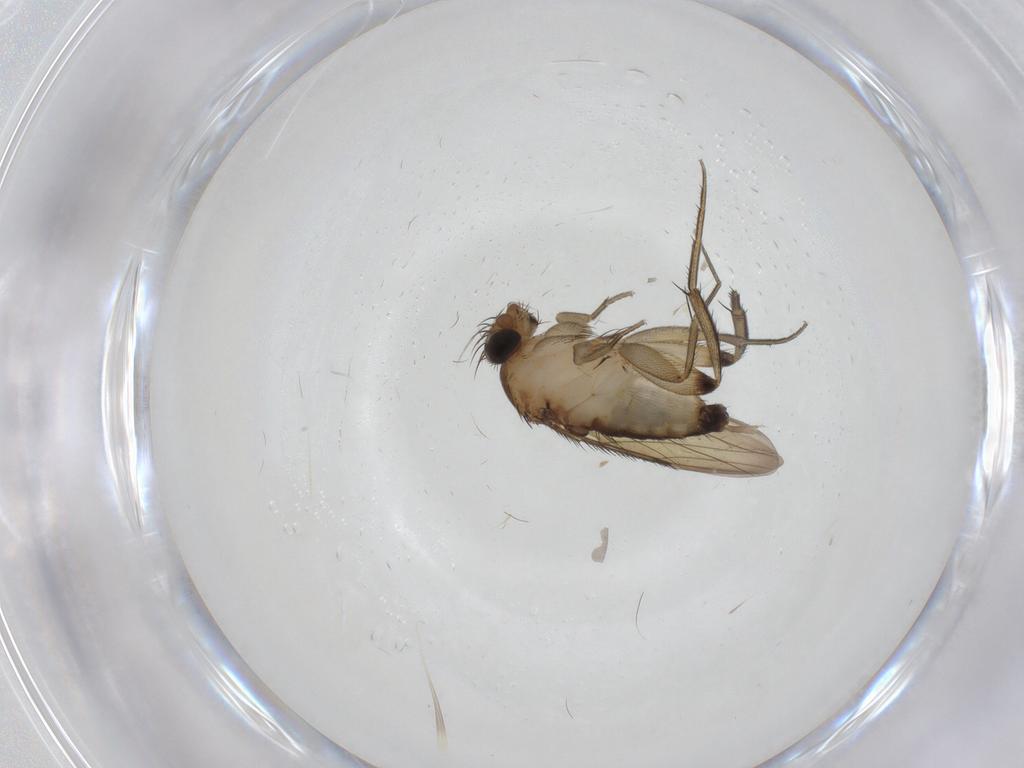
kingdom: Animalia
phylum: Arthropoda
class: Insecta
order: Diptera
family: Phoridae
